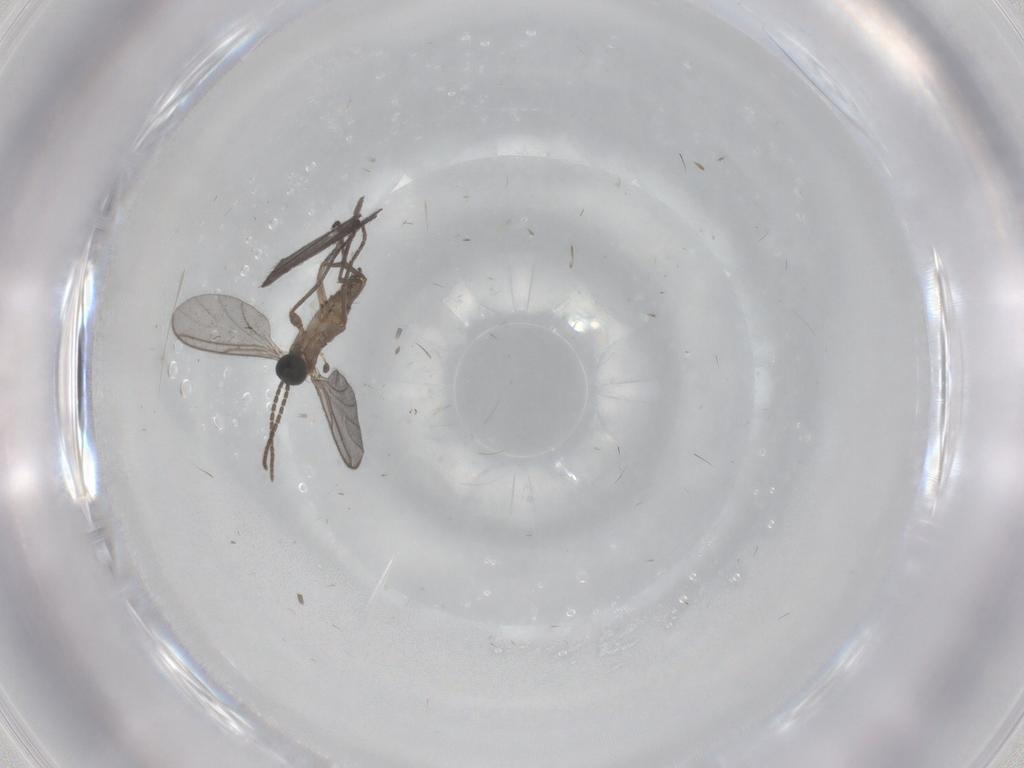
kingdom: Animalia
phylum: Arthropoda
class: Insecta
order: Diptera
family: Sciaridae
